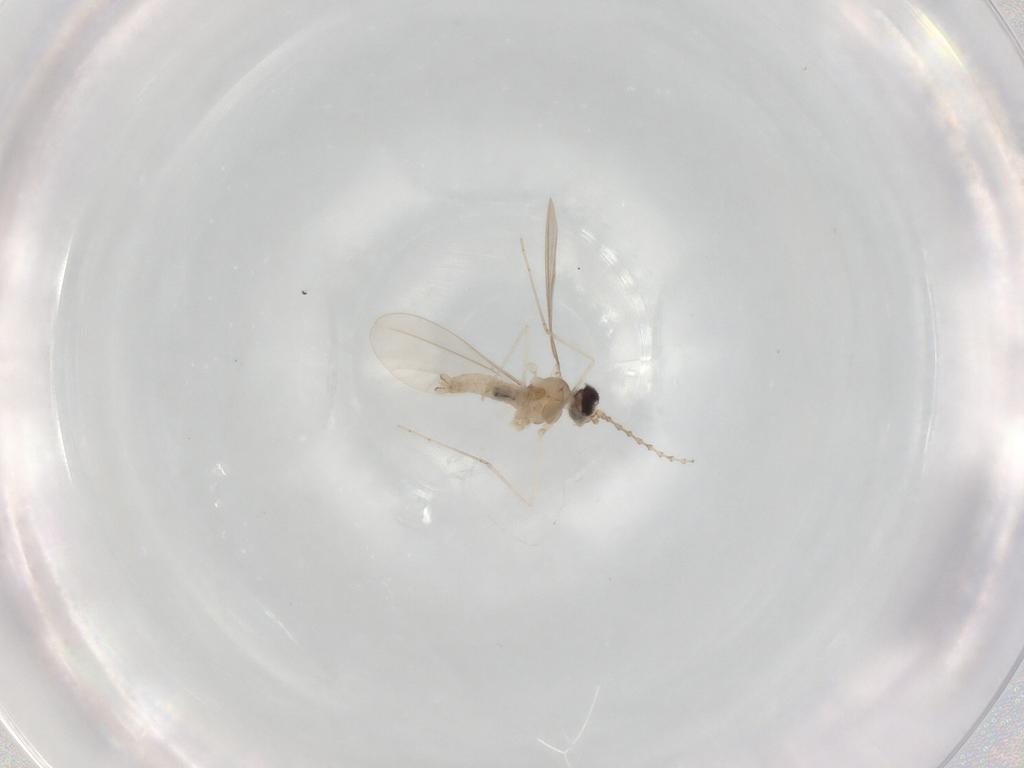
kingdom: Animalia
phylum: Arthropoda
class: Insecta
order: Diptera
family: Cecidomyiidae
